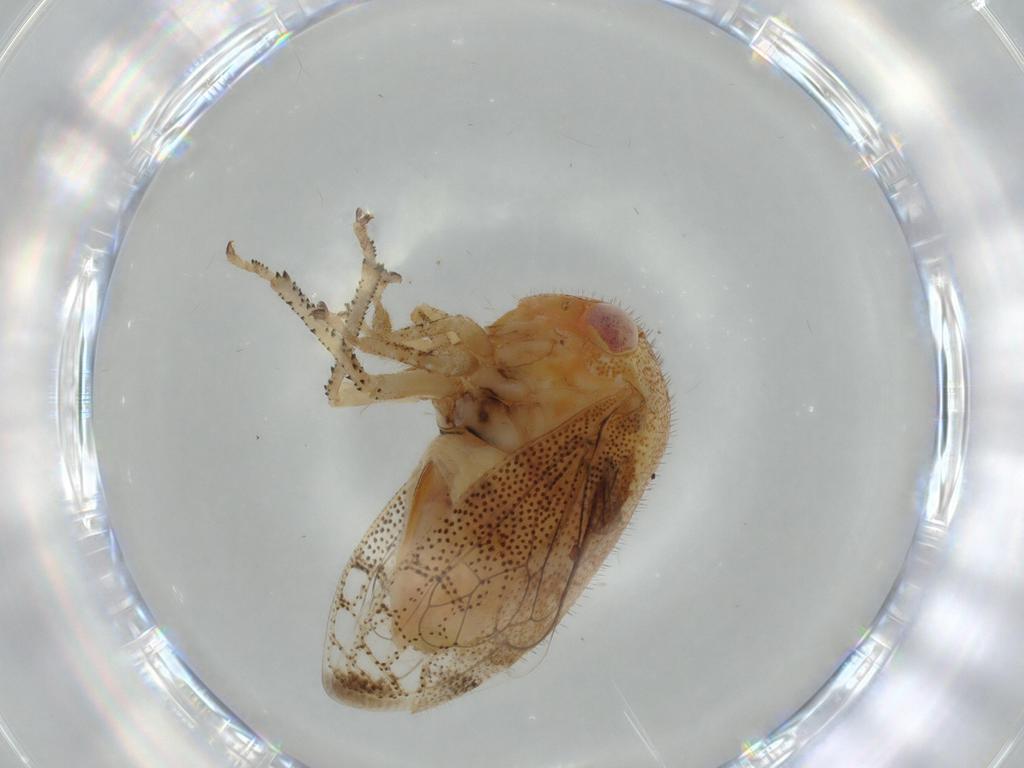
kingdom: Animalia
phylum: Arthropoda
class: Insecta
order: Hemiptera
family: Membracidae
